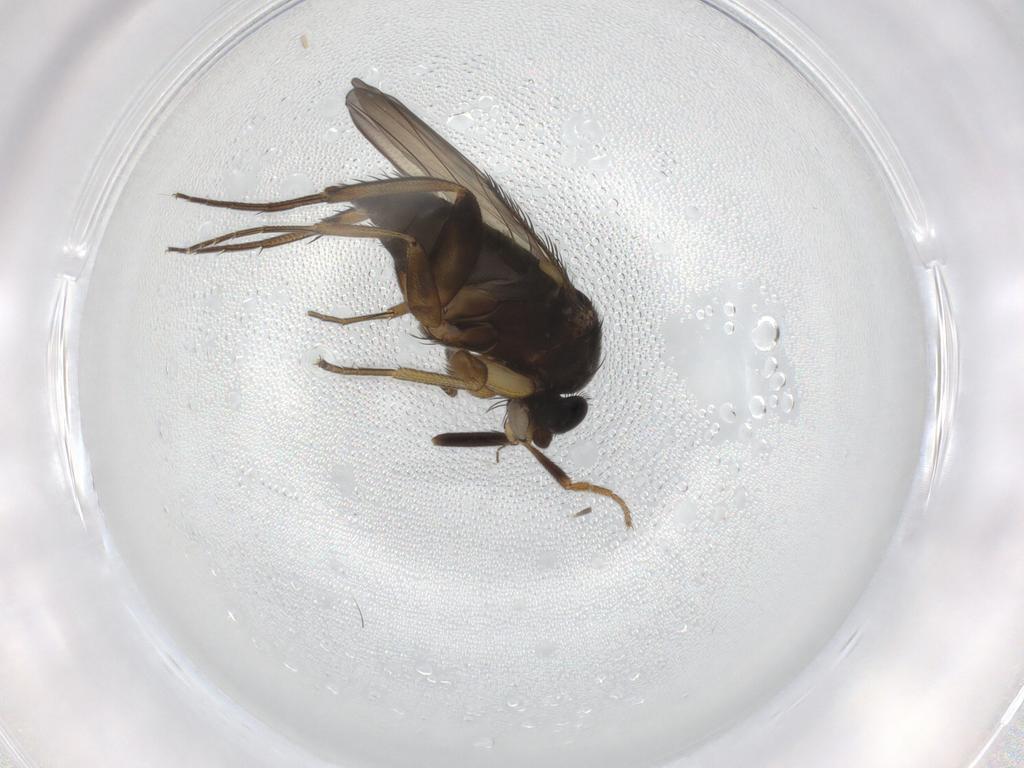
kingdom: Animalia
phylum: Arthropoda
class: Insecta
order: Diptera
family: Phoridae
